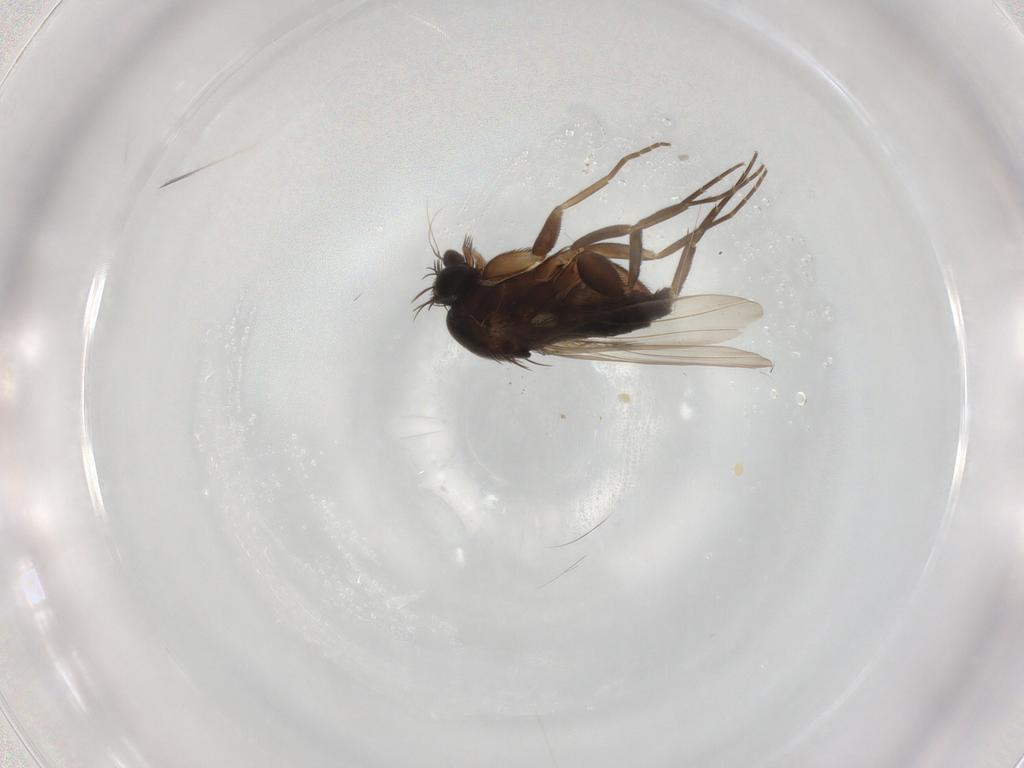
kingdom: Animalia
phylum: Arthropoda
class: Insecta
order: Diptera
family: Phoridae
